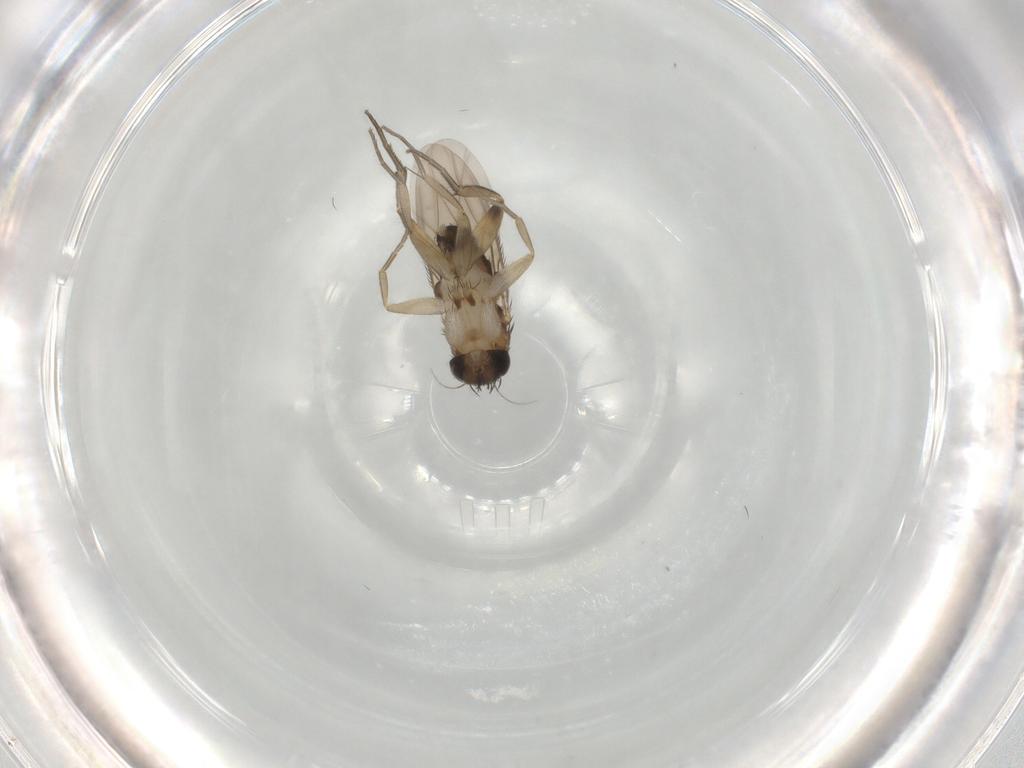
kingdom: Animalia
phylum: Arthropoda
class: Insecta
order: Diptera
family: Phoridae
